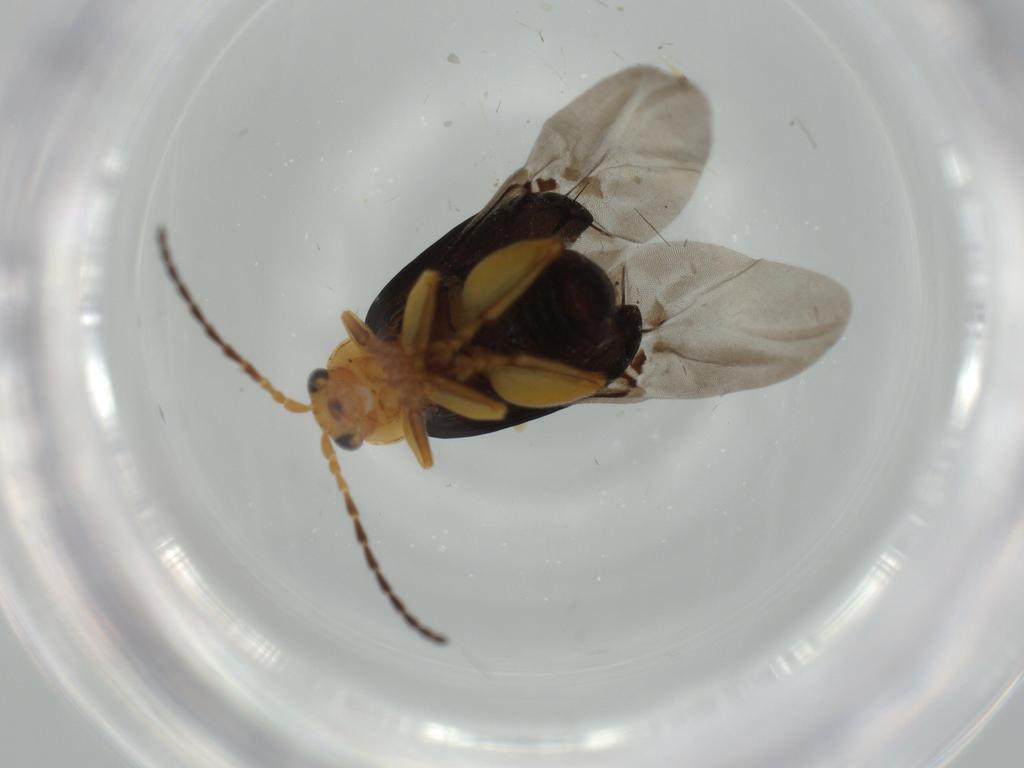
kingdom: Animalia
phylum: Arthropoda
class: Insecta
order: Coleoptera
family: Chrysomelidae
